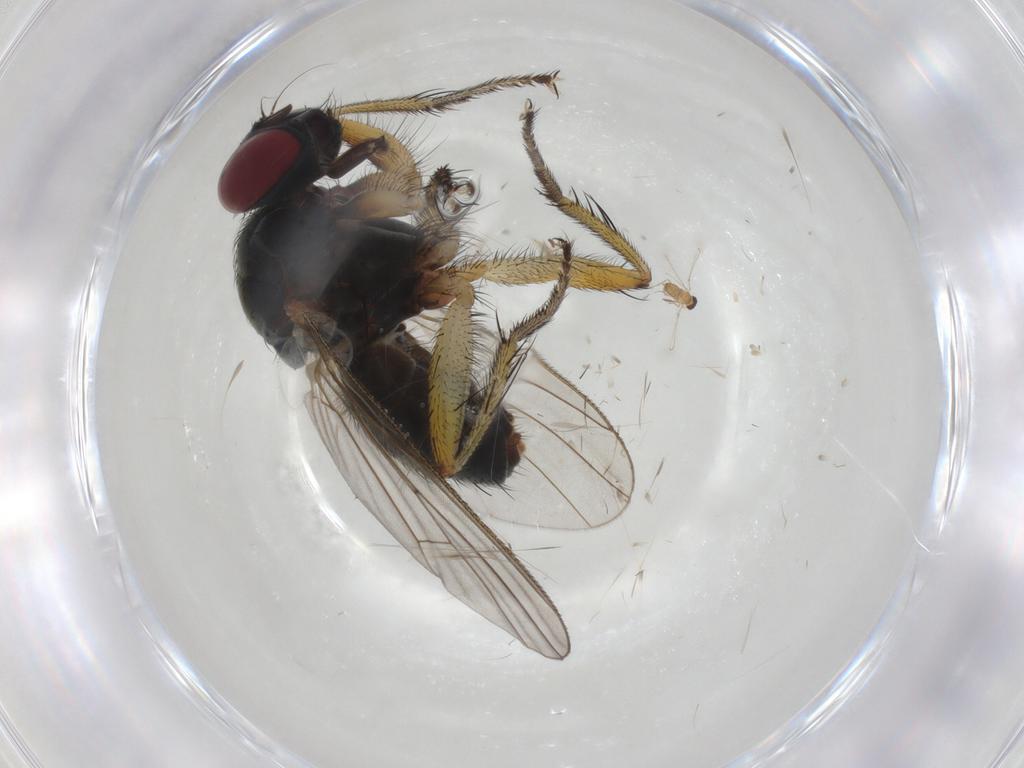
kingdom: Animalia
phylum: Arthropoda
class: Insecta
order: Diptera
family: Muscidae
